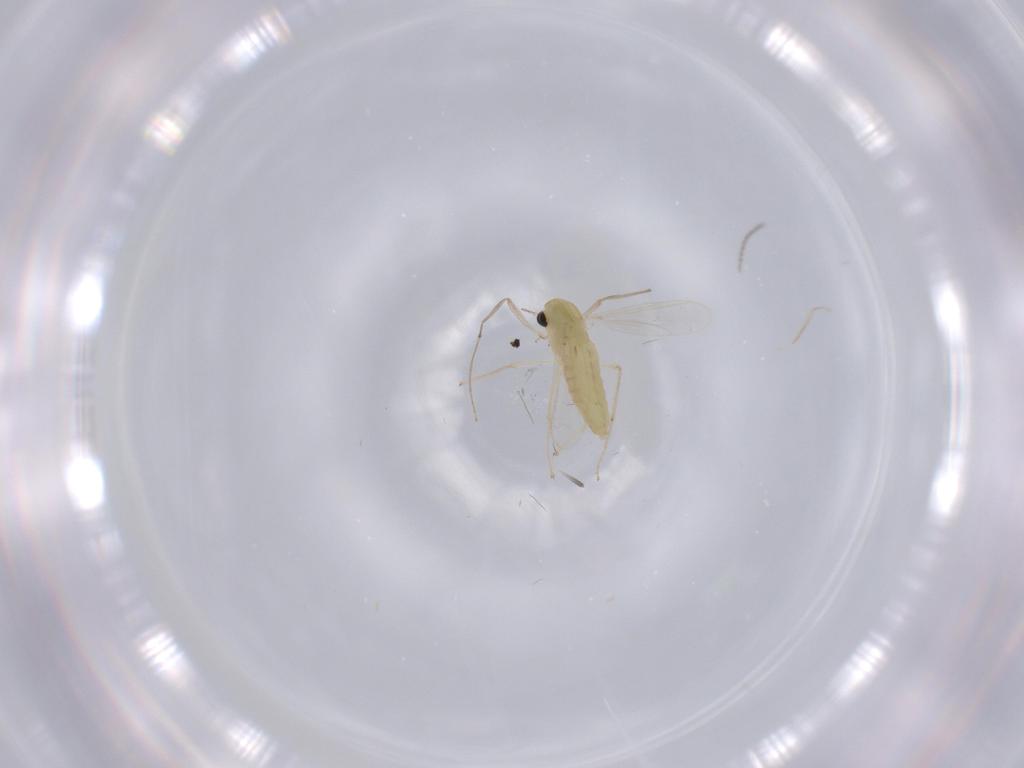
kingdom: Animalia
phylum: Arthropoda
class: Insecta
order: Diptera
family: Chironomidae
